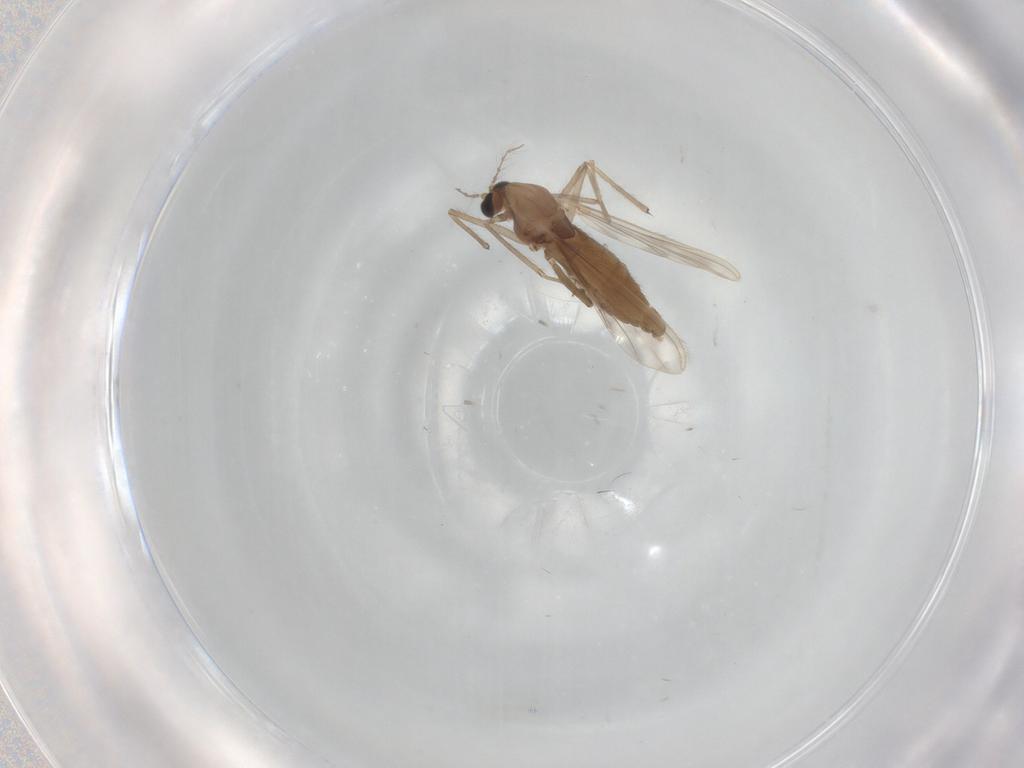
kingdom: Animalia
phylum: Arthropoda
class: Insecta
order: Diptera
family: Chironomidae
